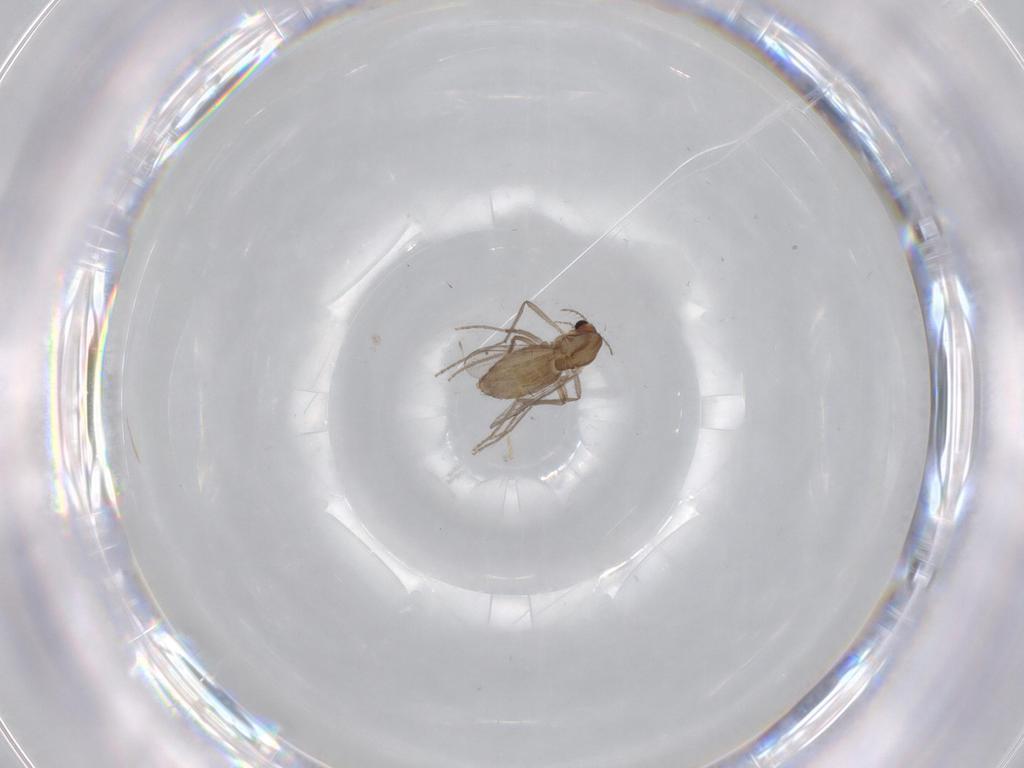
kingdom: Animalia
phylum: Arthropoda
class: Insecta
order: Diptera
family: Chironomidae
